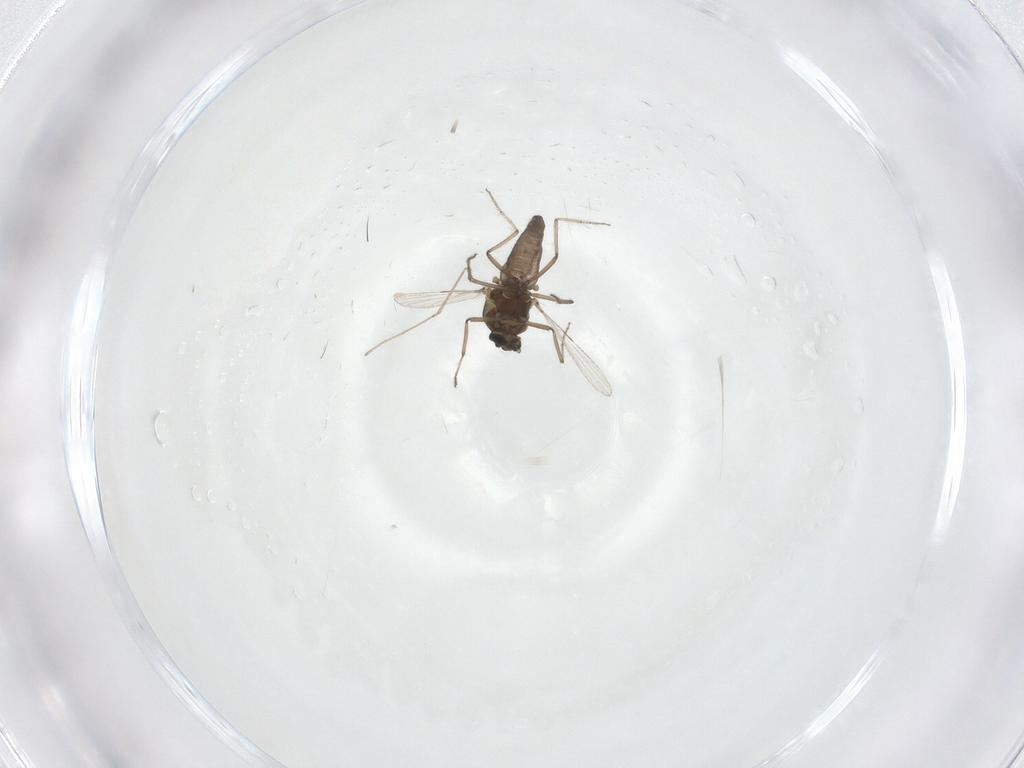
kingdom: Animalia
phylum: Arthropoda
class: Insecta
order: Diptera
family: Ceratopogonidae
